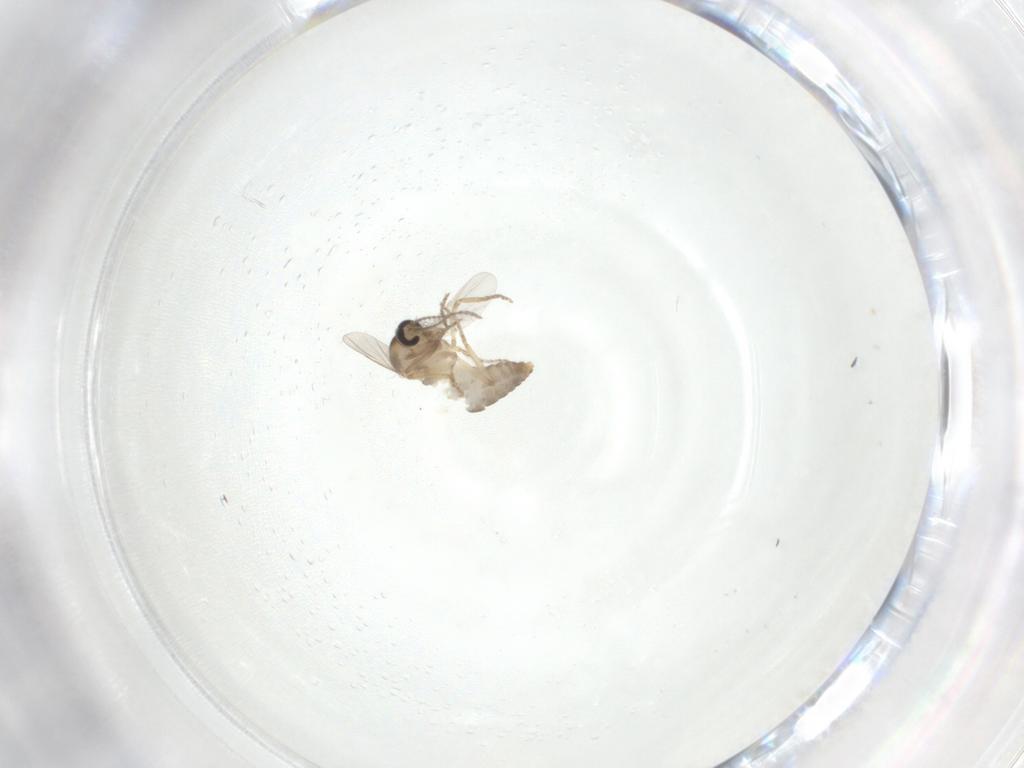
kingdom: Animalia
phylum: Arthropoda
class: Insecta
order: Diptera
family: Ceratopogonidae
